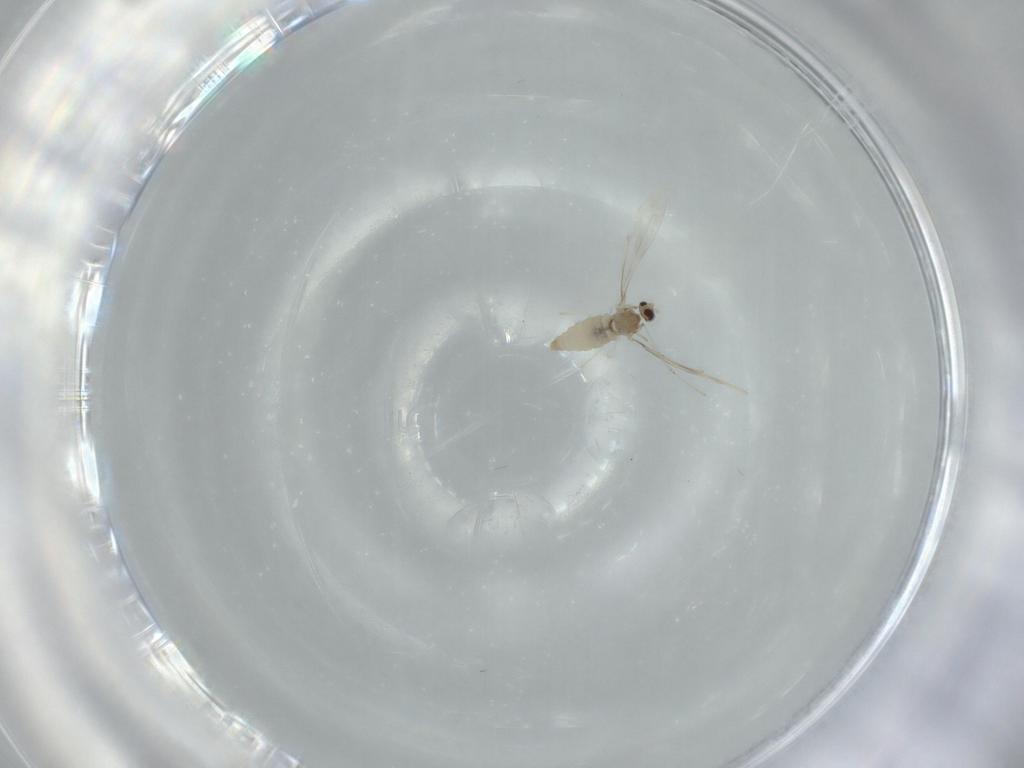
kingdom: Animalia
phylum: Arthropoda
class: Insecta
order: Diptera
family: Cecidomyiidae
